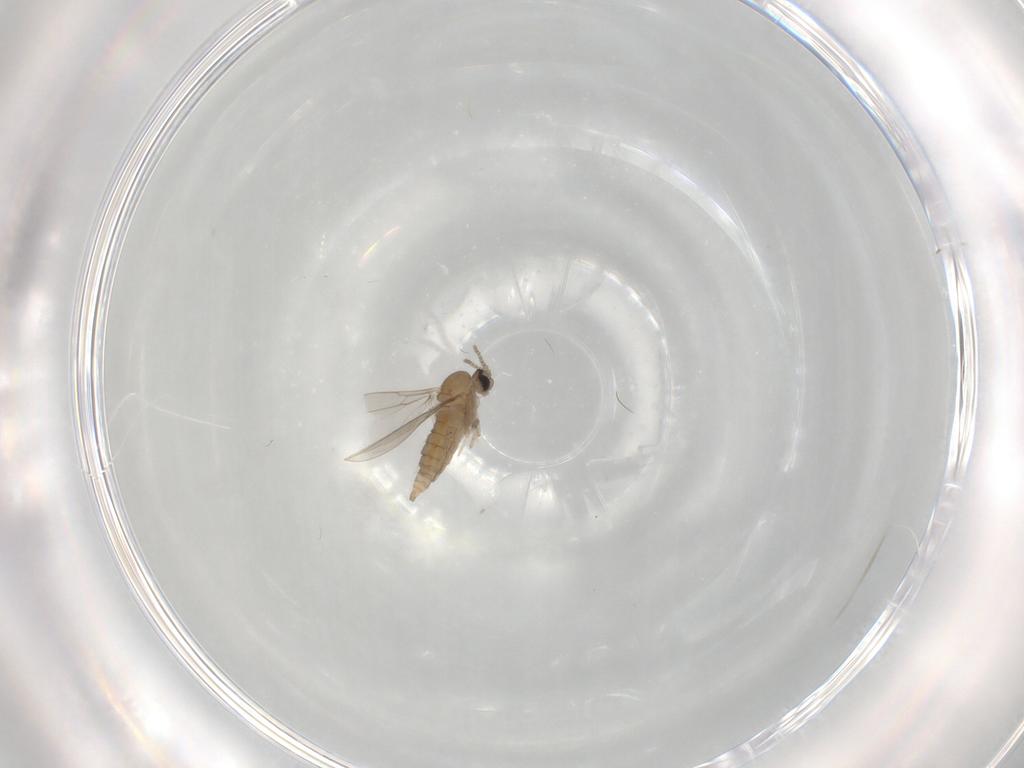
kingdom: Animalia
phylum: Arthropoda
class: Insecta
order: Diptera
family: Cecidomyiidae
